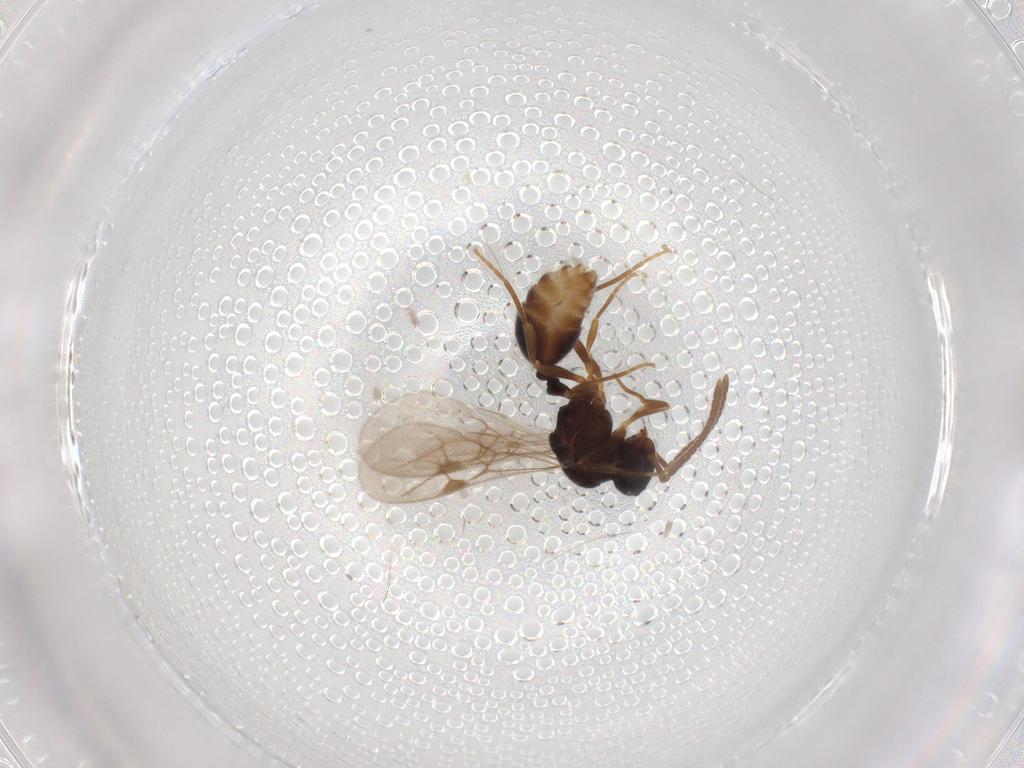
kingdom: Animalia
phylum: Arthropoda
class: Insecta
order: Hymenoptera
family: Formicidae
